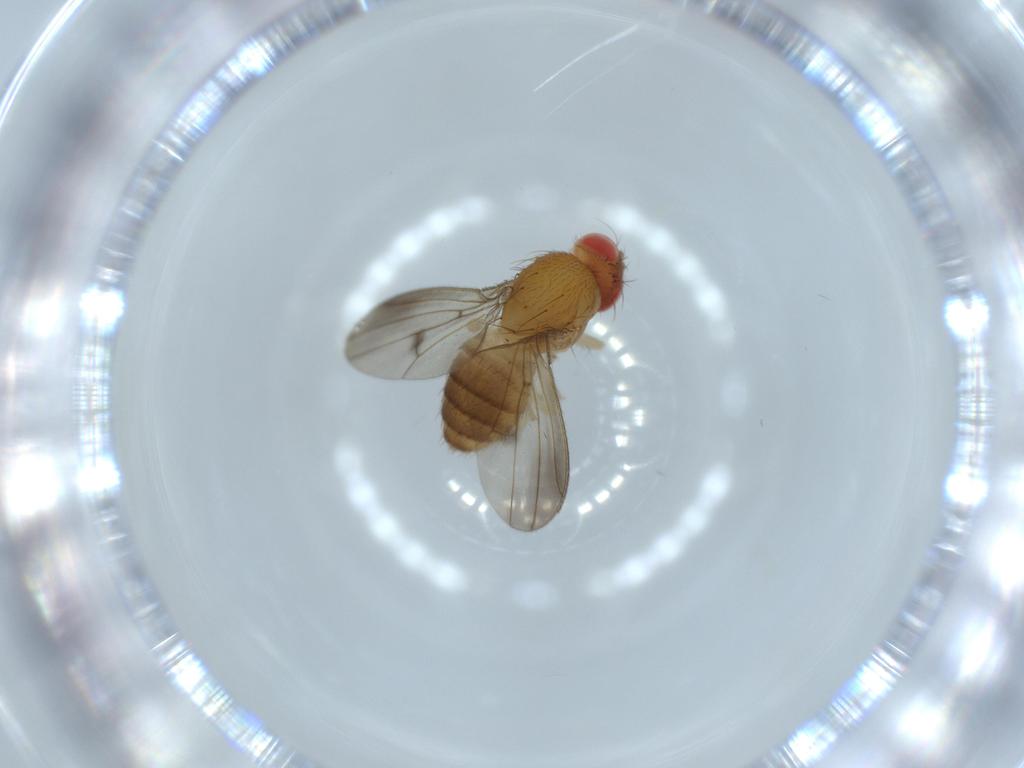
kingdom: Animalia
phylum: Arthropoda
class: Insecta
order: Diptera
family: Drosophilidae
